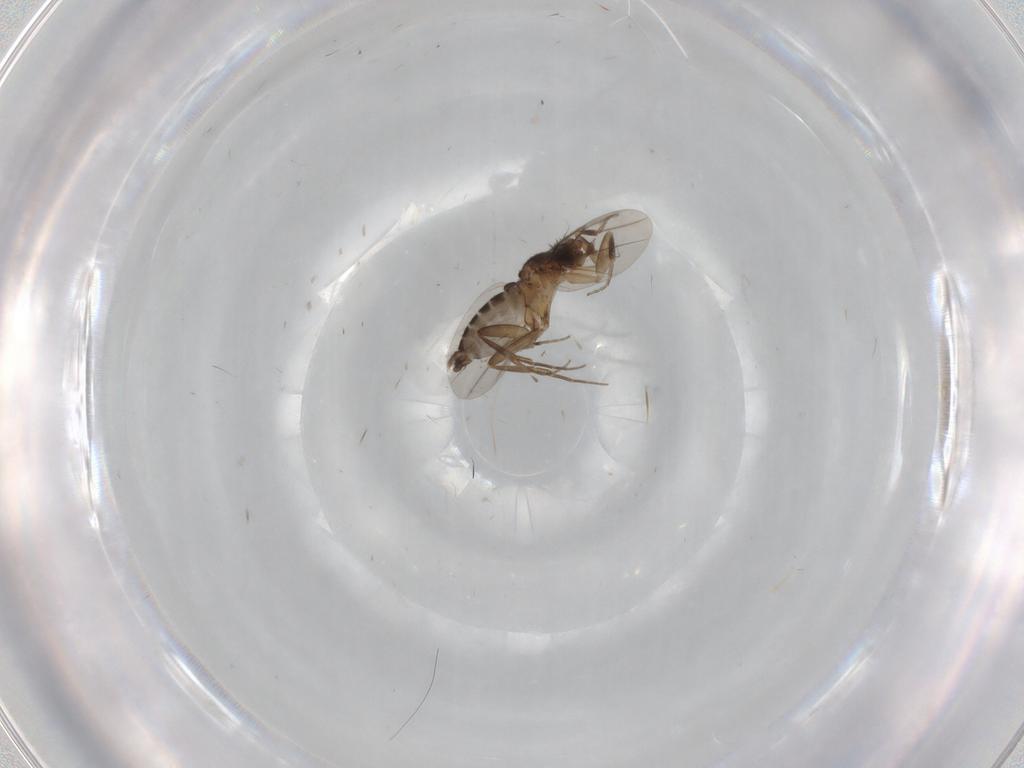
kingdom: Animalia
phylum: Arthropoda
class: Insecta
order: Diptera
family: Phoridae
